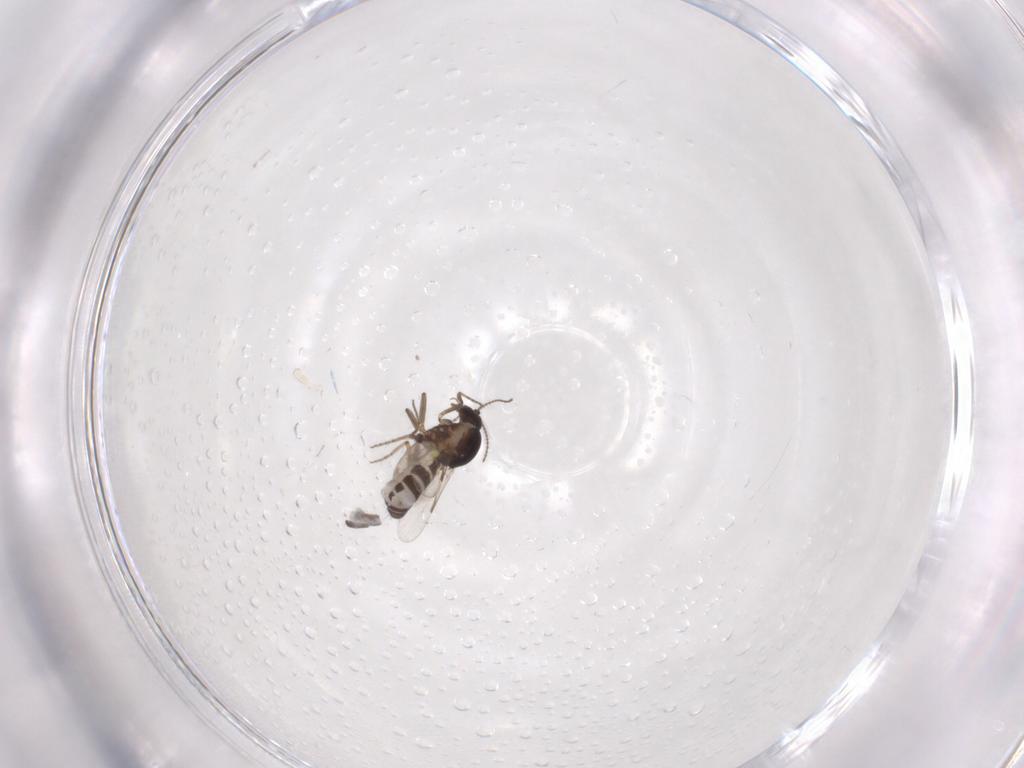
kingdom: Animalia
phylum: Arthropoda
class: Insecta
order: Diptera
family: Ceratopogonidae
